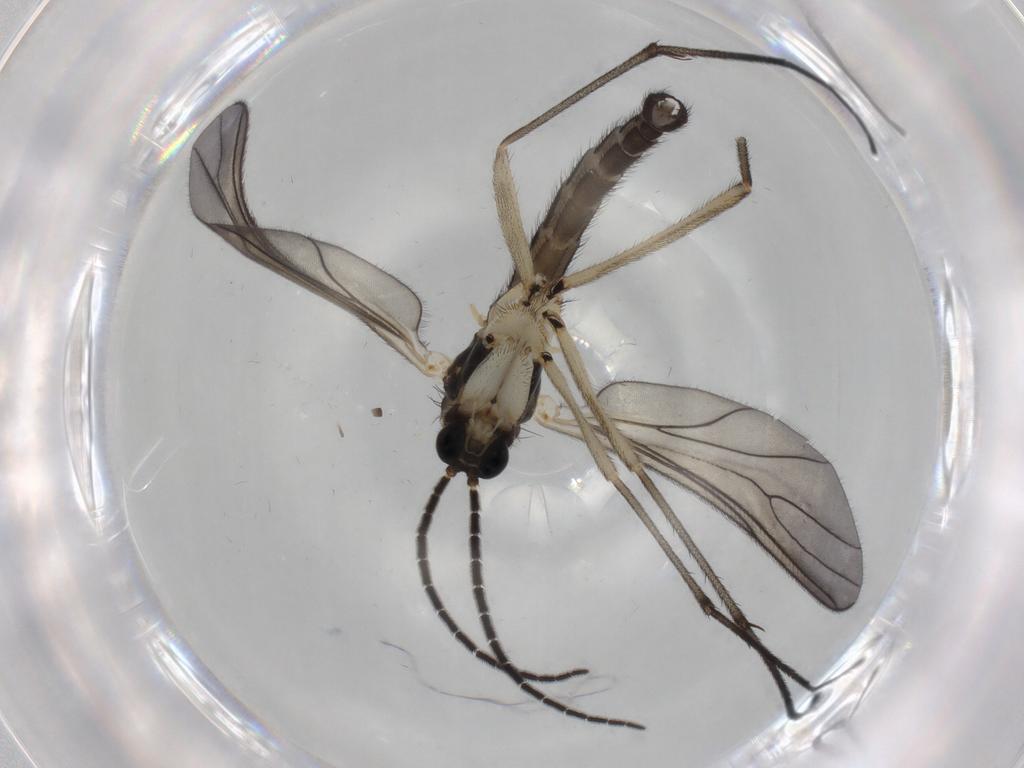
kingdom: Animalia
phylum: Arthropoda
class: Insecta
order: Diptera
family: Sciaridae
